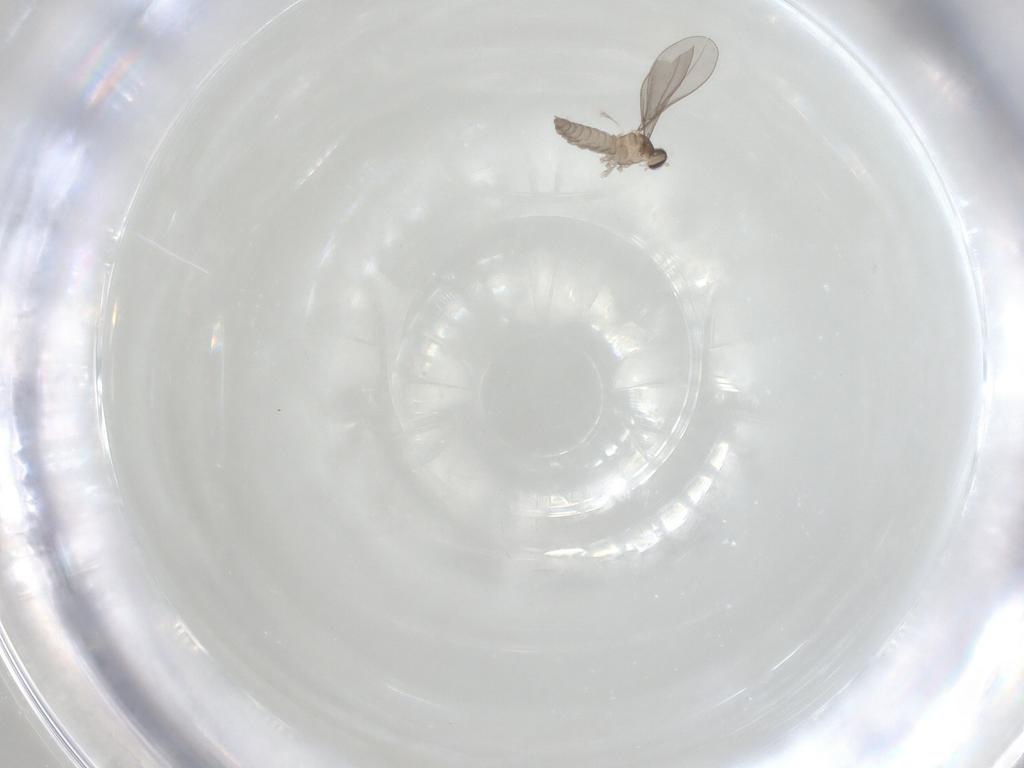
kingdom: Animalia
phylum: Arthropoda
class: Insecta
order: Diptera
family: Cecidomyiidae
